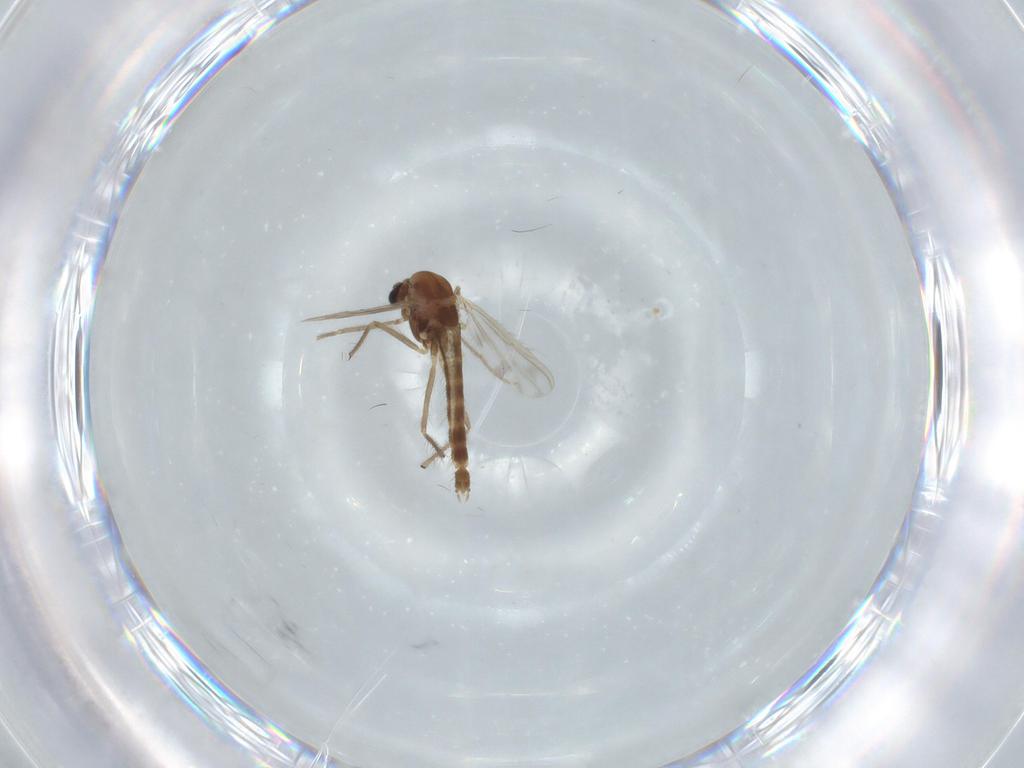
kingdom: Animalia
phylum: Arthropoda
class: Insecta
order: Diptera
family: Chironomidae
